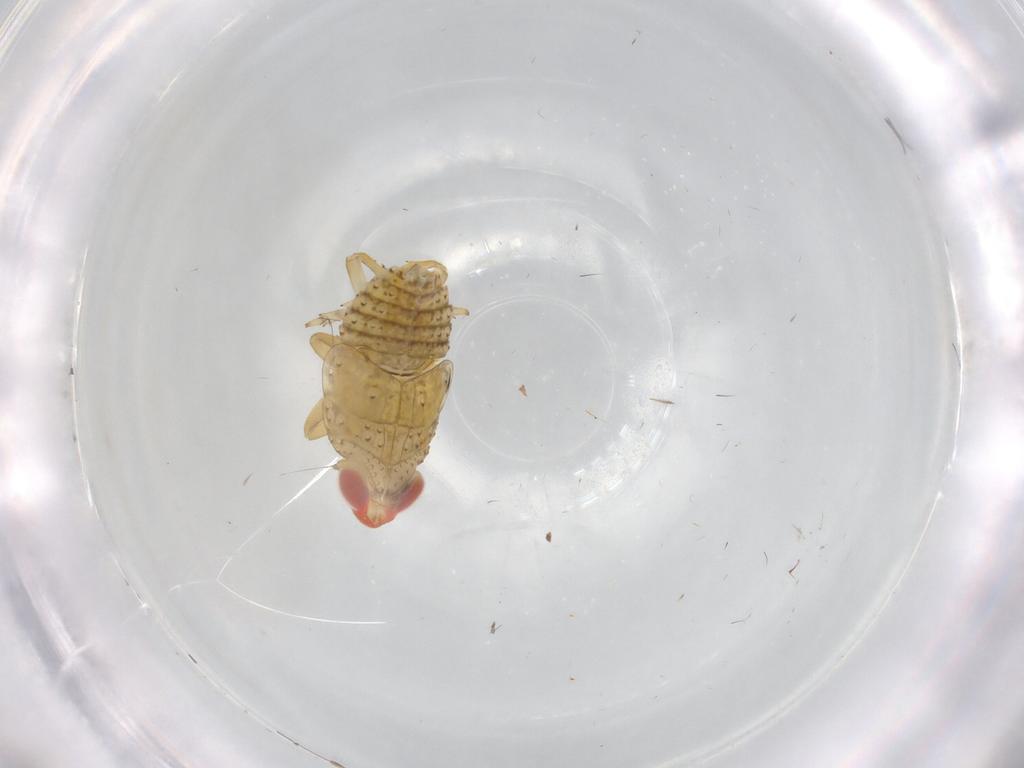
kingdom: Animalia
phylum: Arthropoda
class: Insecta
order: Hemiptera
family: Issidae
